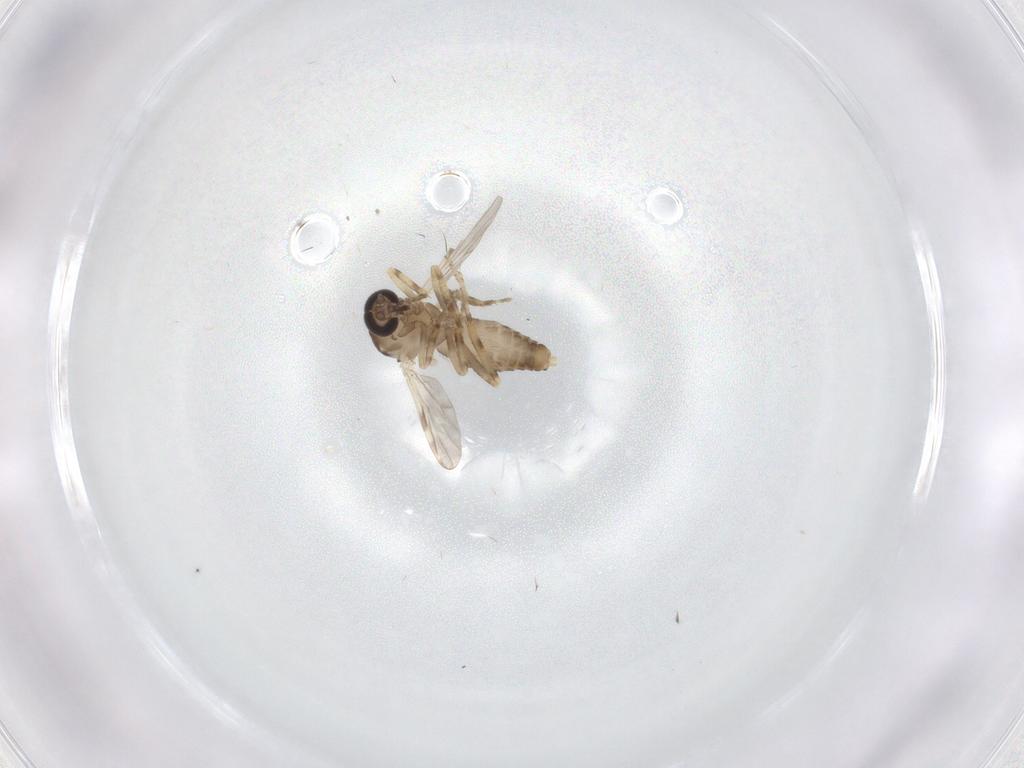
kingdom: Animalia
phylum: Arthropoda
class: Insecta
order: Diptera
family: Ceratopogonidae
